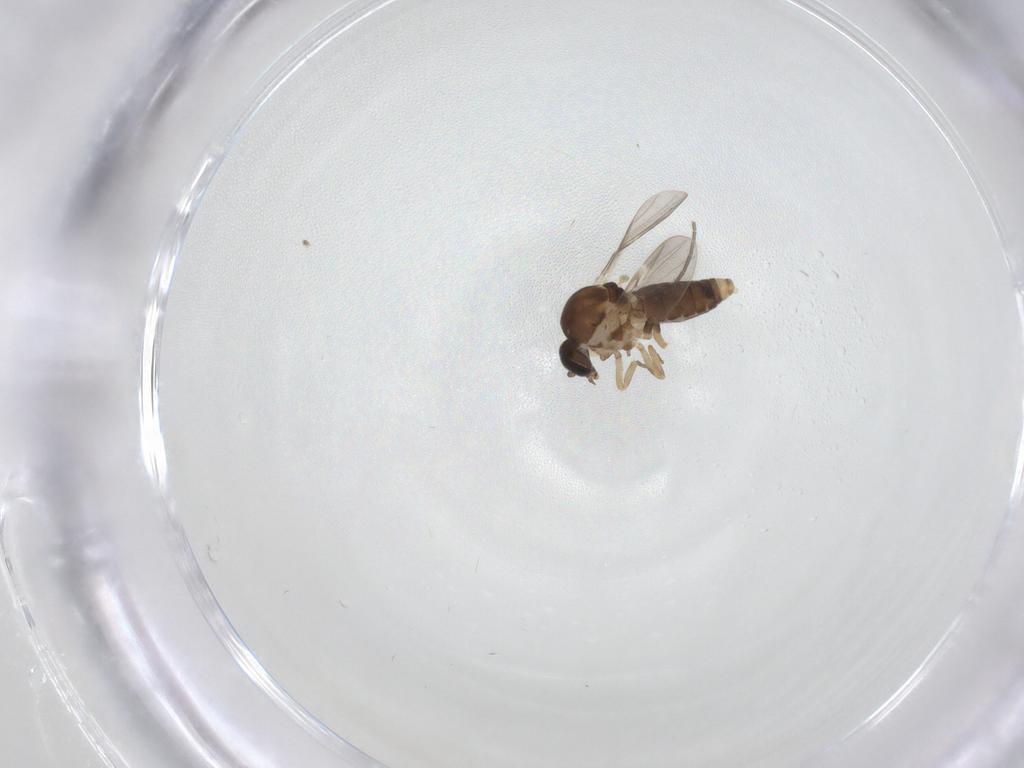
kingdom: Animalia
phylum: Arthropoda
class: Insecta
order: Diptera
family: Ceratopogonidae
